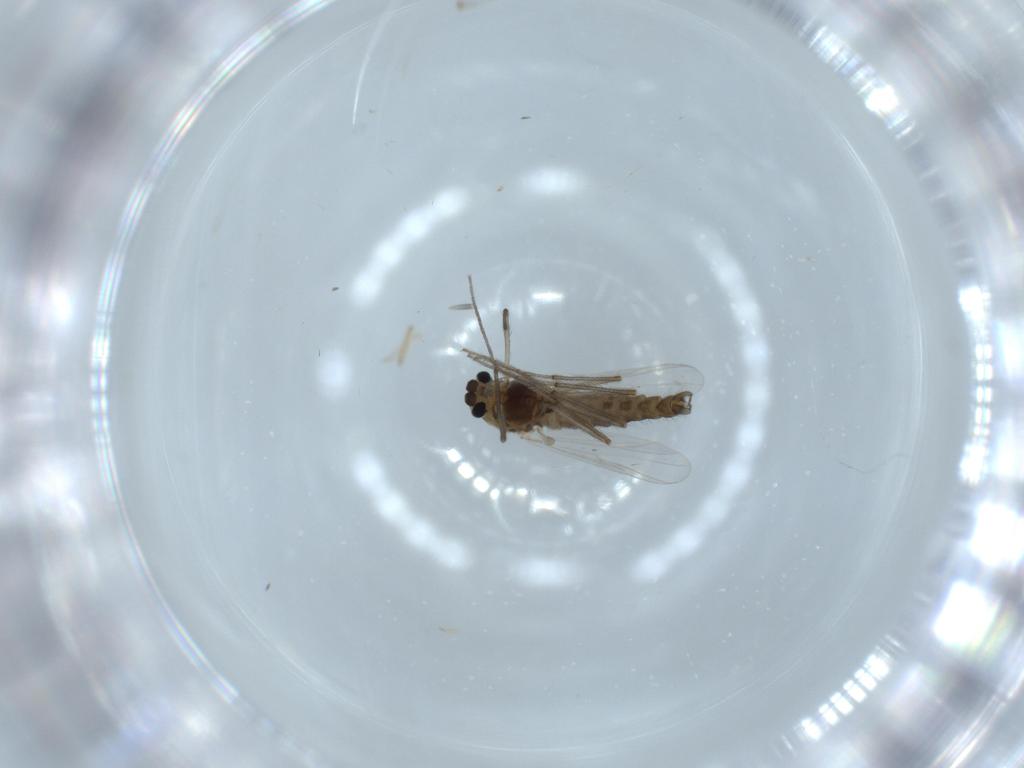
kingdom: Animalia
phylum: Arthropoda
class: Insecta
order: Diptera
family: Chironomidae
